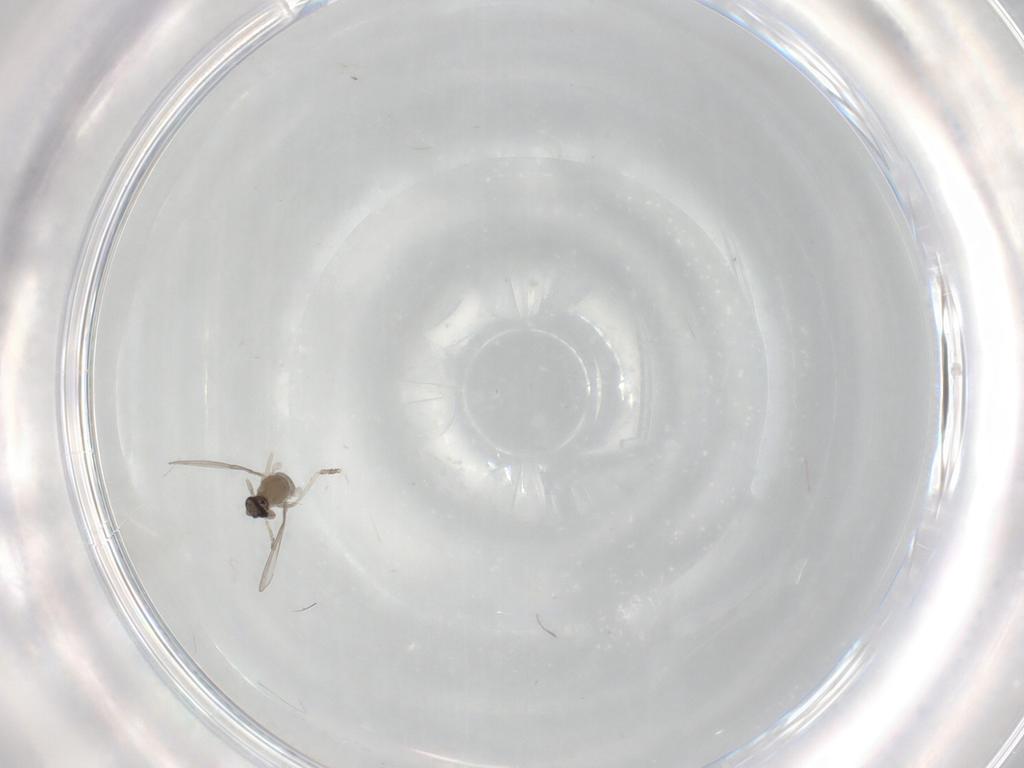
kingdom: Animalia
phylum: Arthropoda
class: Insecta
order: Diptera
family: Cecidomyiidae
